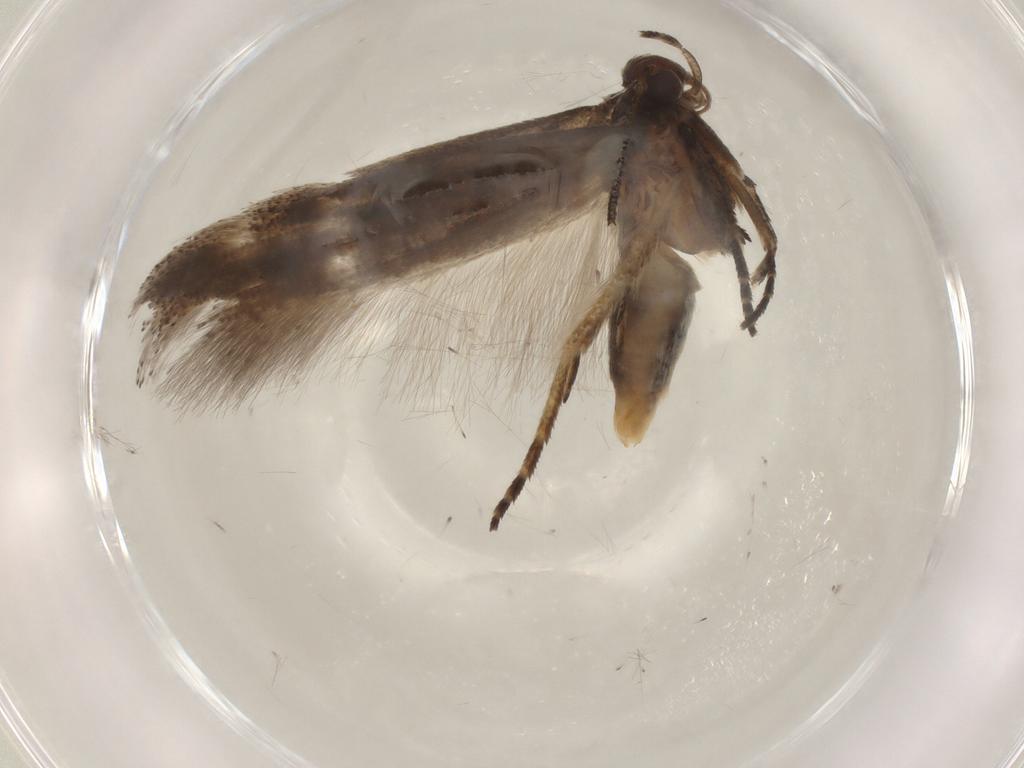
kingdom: Animalia
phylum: Arthropoda
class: Insecta
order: Lepidoptera
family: Gelechiidae
